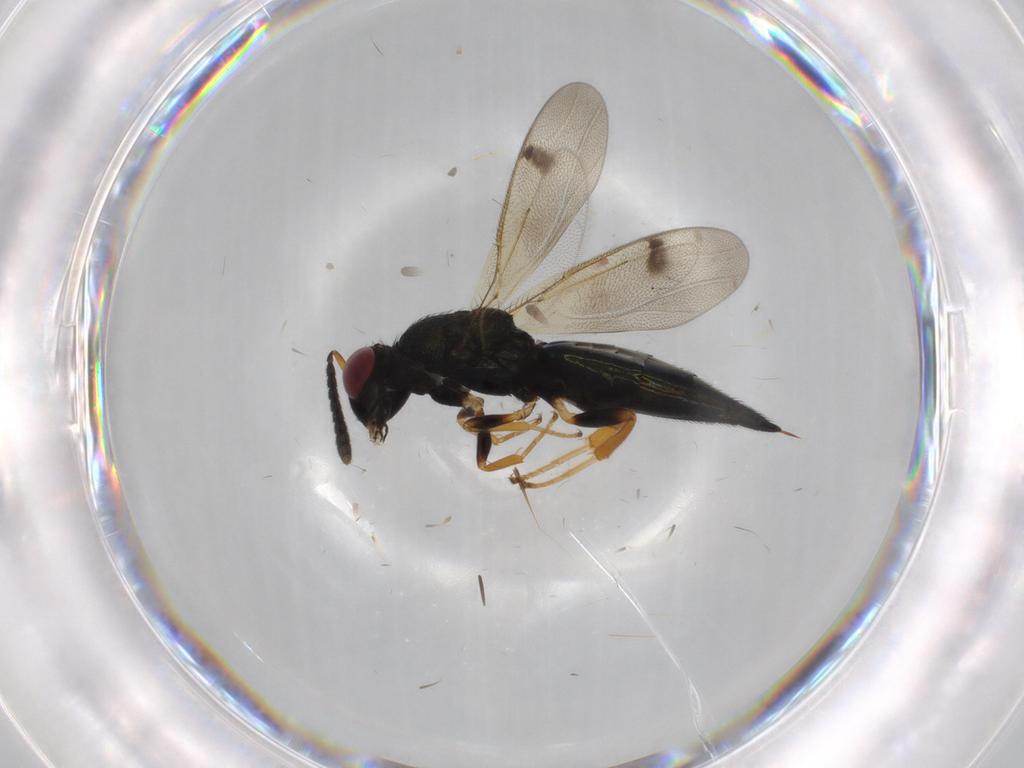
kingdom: Animalia
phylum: Arthropoda
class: Insecta
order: Hymenoptera
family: Pteromalidae
